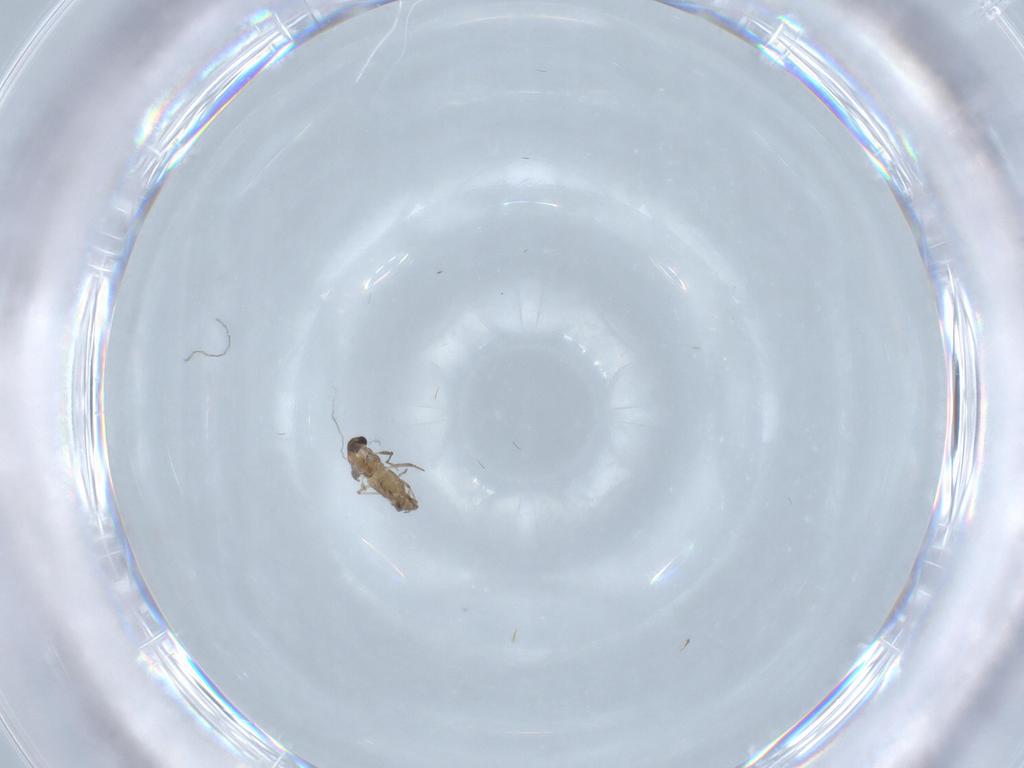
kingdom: Animalia
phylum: Arthropoda
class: Insecta
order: Diptera
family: Chironomidae
